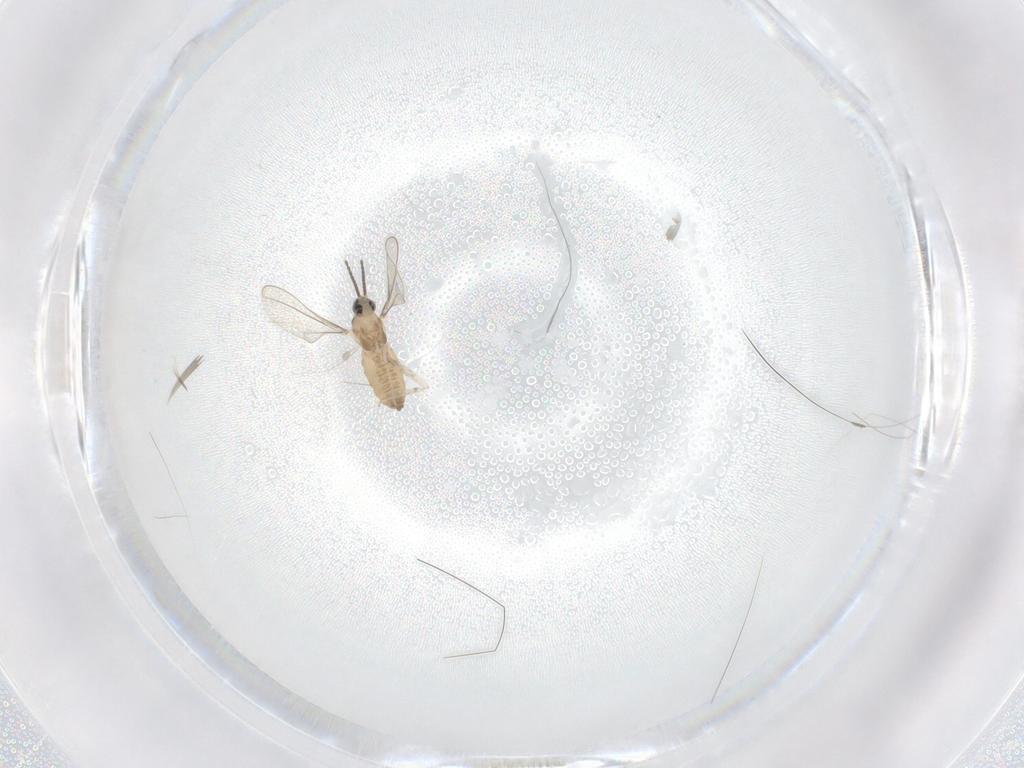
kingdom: Animalia
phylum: Arthropoda
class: Insecta
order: Diptera
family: Cecidomyiidae
